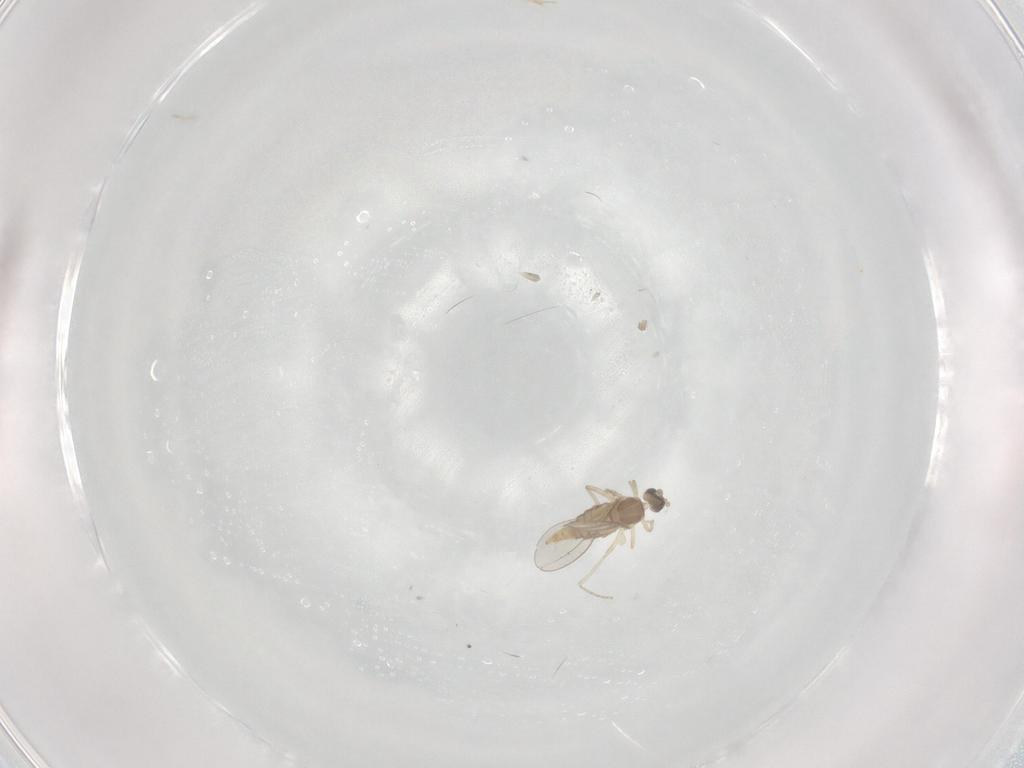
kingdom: Animalia
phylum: Arthropoda
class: Insecta
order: Diptera
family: Cecidomyiidae
